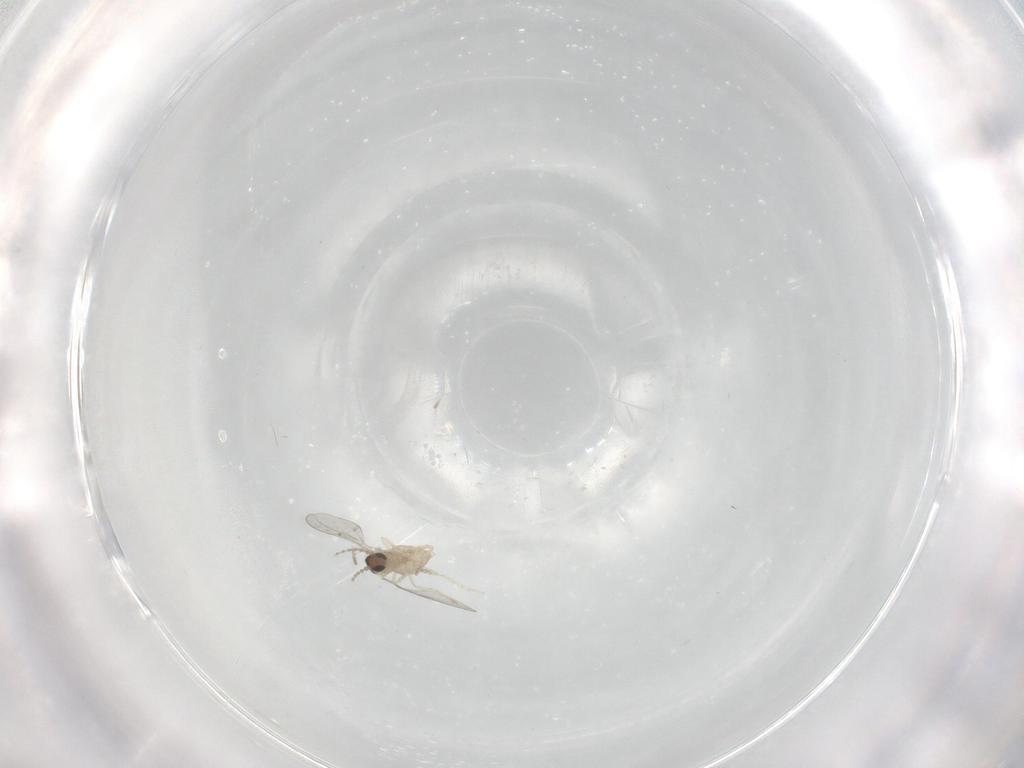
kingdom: Animalia
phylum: Arthropoda
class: Insecta
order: Diptera
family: Cecidomyiidae
